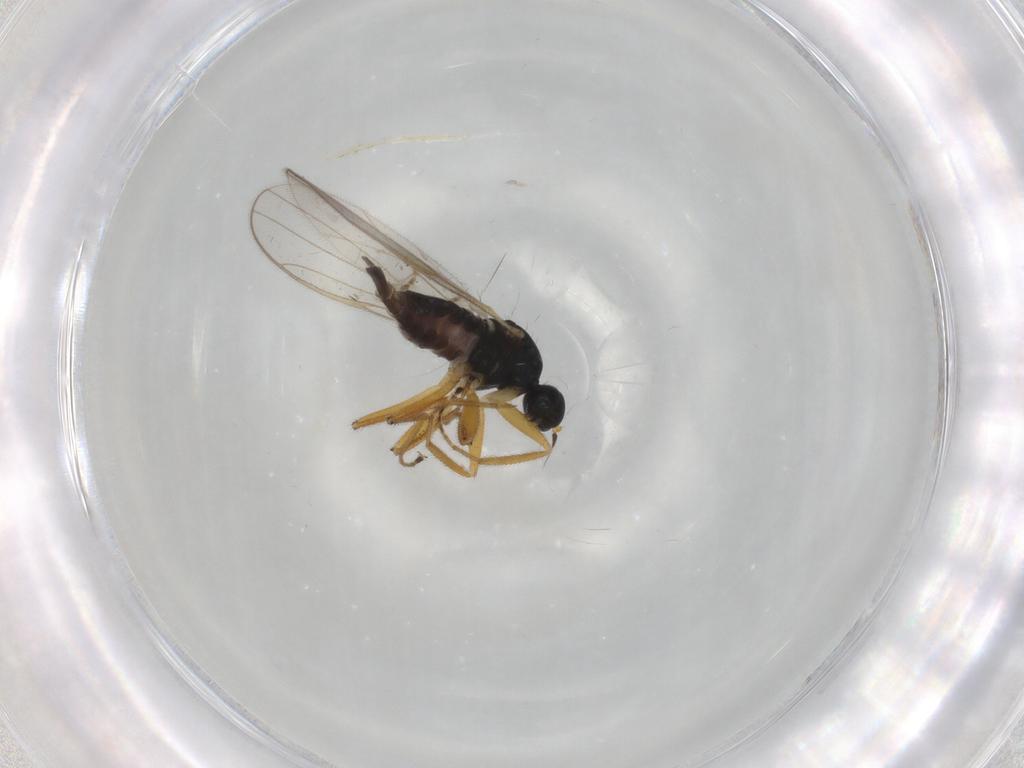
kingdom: Animalia
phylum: Arthropoda
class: Insecta
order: Diptera
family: Hybotidae
